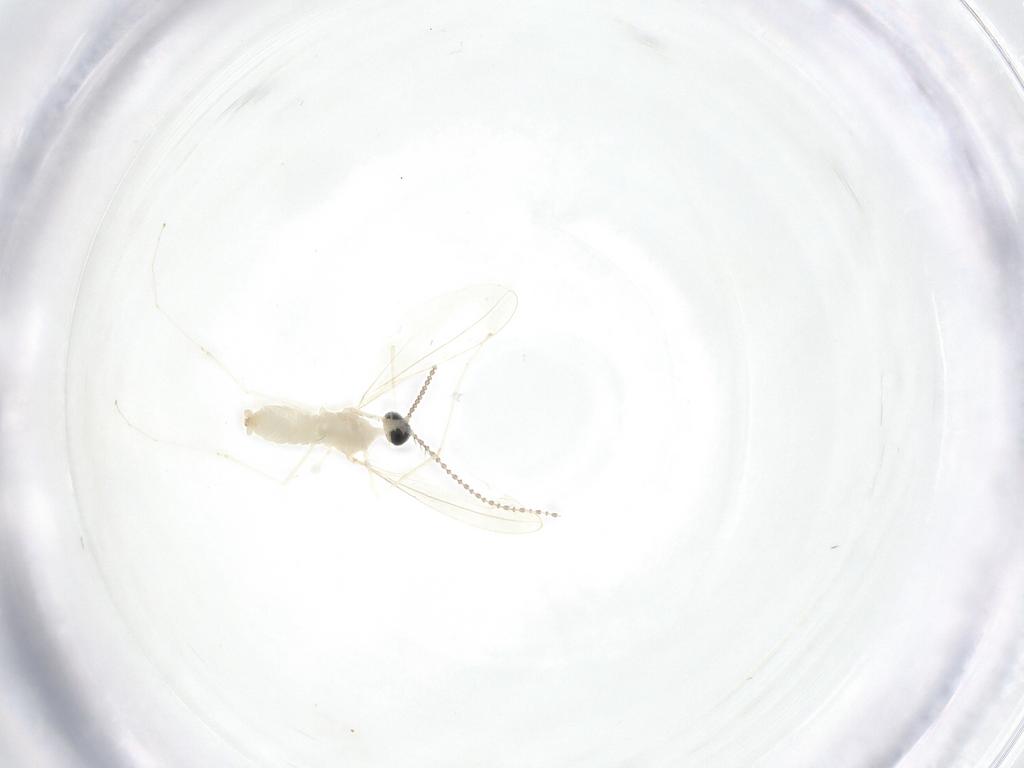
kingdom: Animalia
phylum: Arthropoda
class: Insecta
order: Diptera
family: Cecidomyiidae
